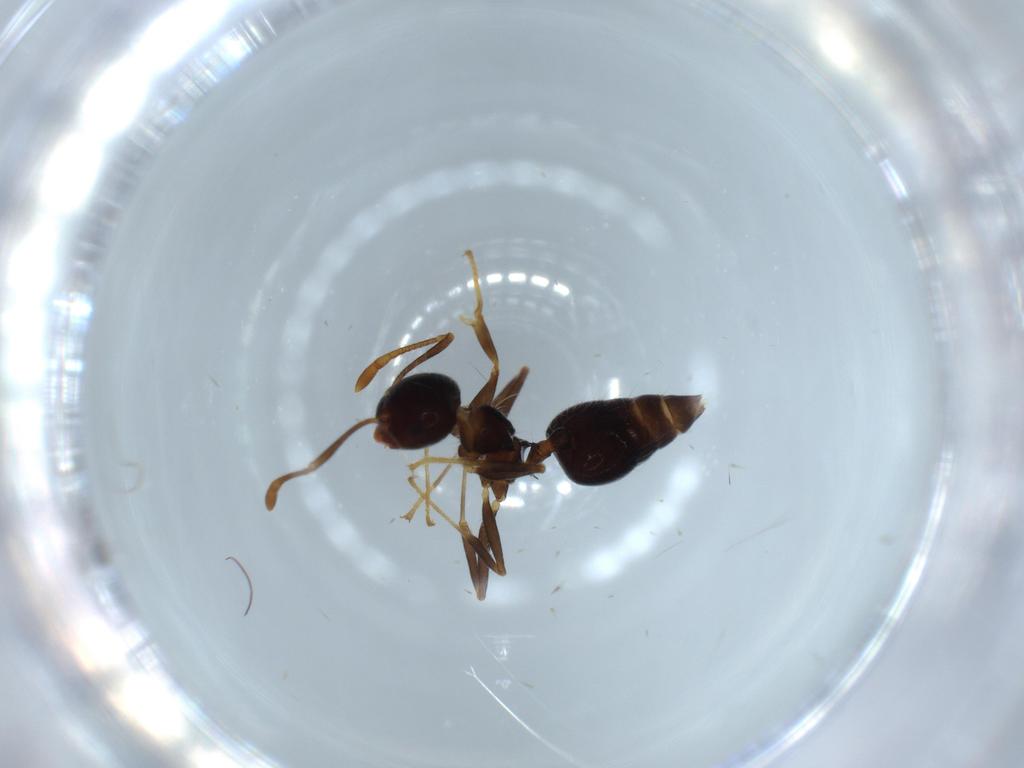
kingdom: Animalia
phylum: Arthropoda
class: Insecta
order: Hymenoptera
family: Formicidae
